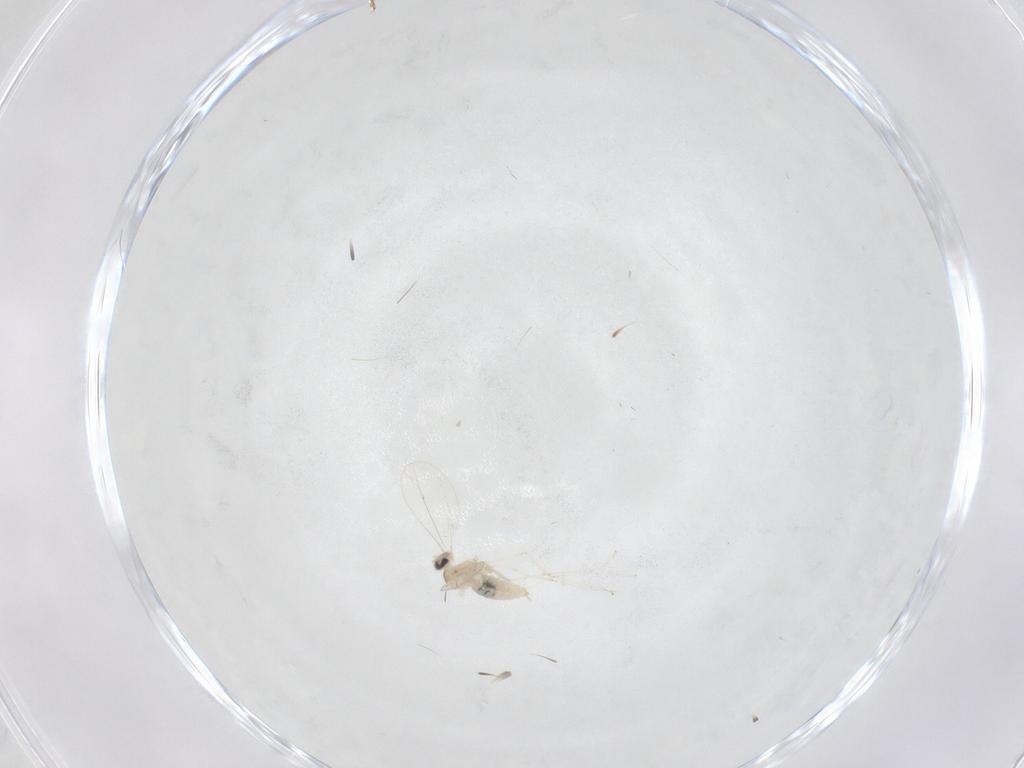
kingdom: Animalia
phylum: Arthropoda
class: Insecta
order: Diptera
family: Cecidomyiidae
